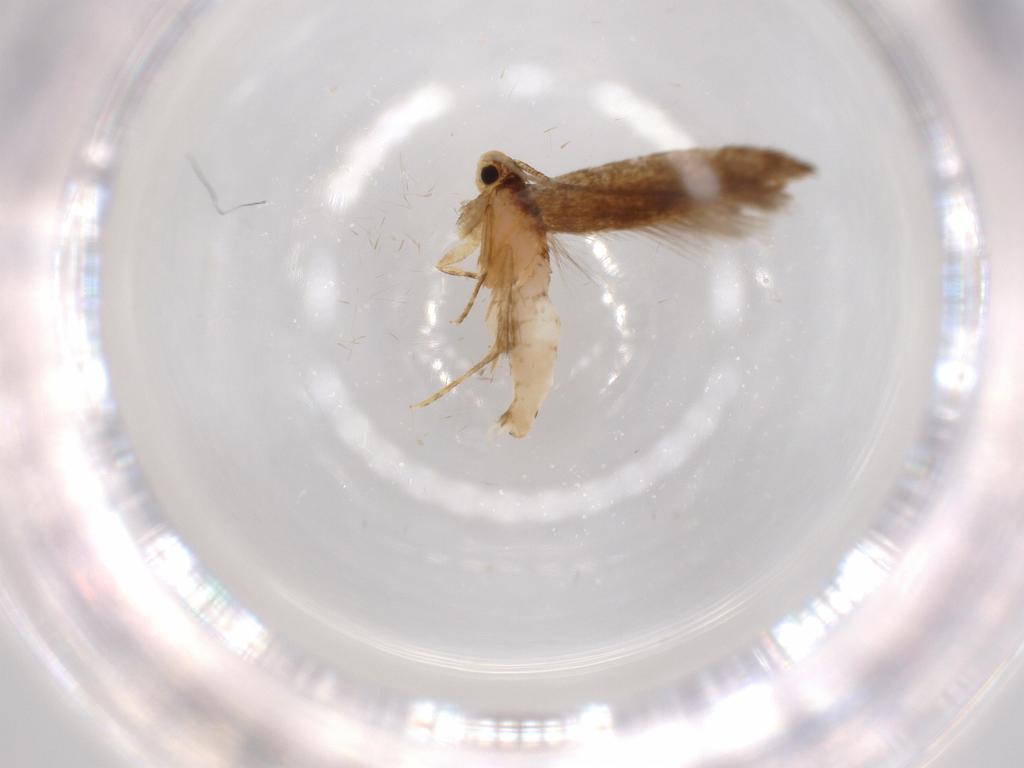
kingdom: Animalia
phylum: Arthropoda
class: Insecta
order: Lepidoptera
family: Tineidae
